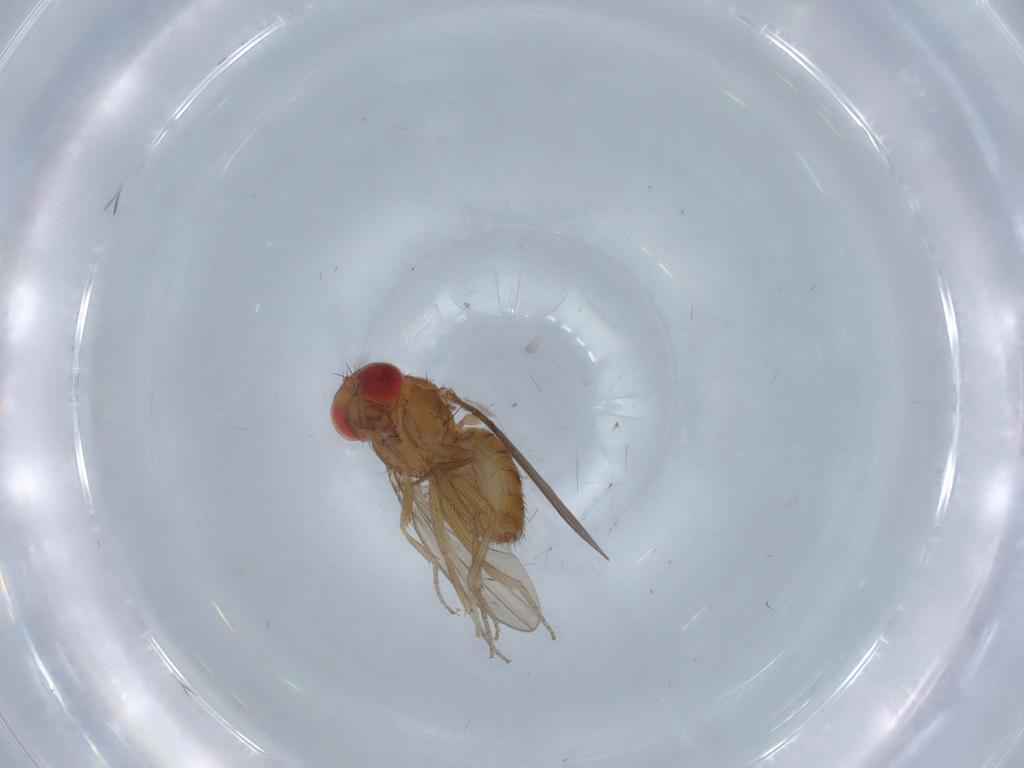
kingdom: Animalia
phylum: Arthropoda
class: Insecta
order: Diptera
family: Drosophilidae
